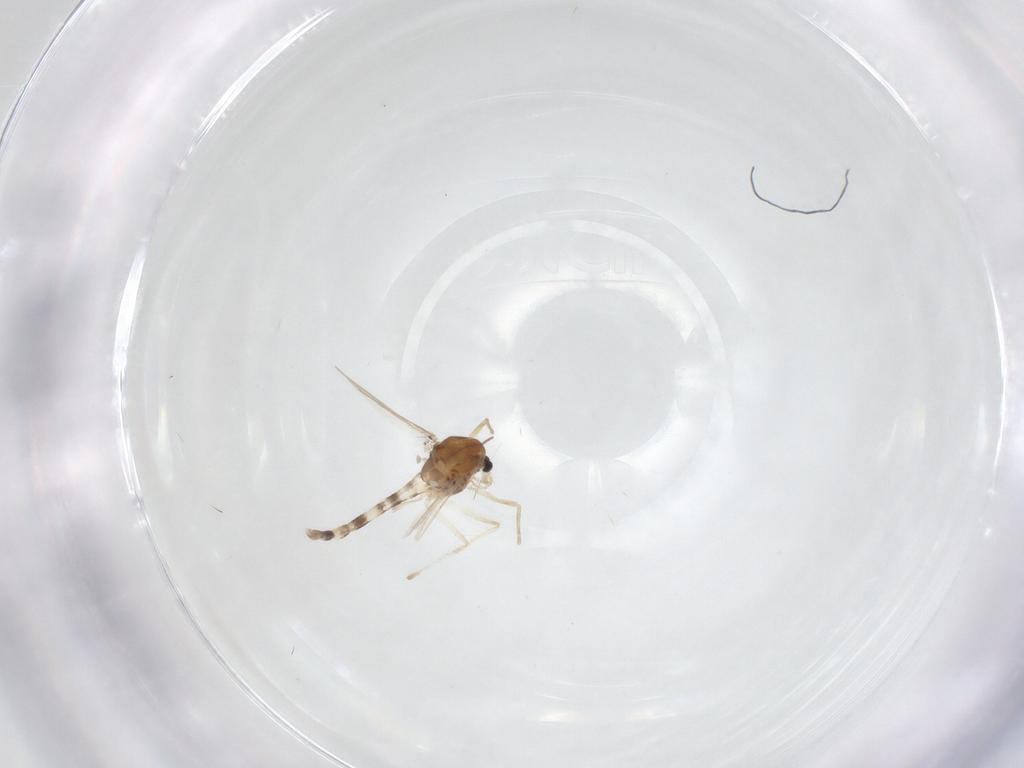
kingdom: Animalia
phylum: Arthropoda
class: Insecta
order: Diptera
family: Chironomidae
